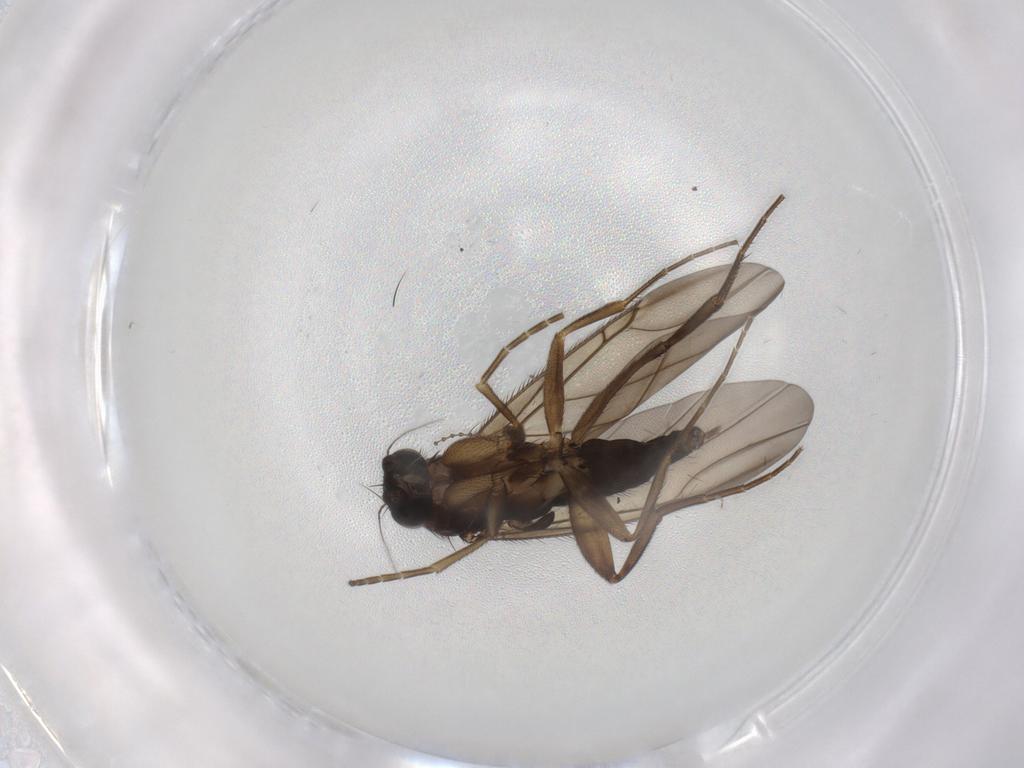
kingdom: Animalia
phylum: Arthropoda
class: Insecta
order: Diptera
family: Phoridae
